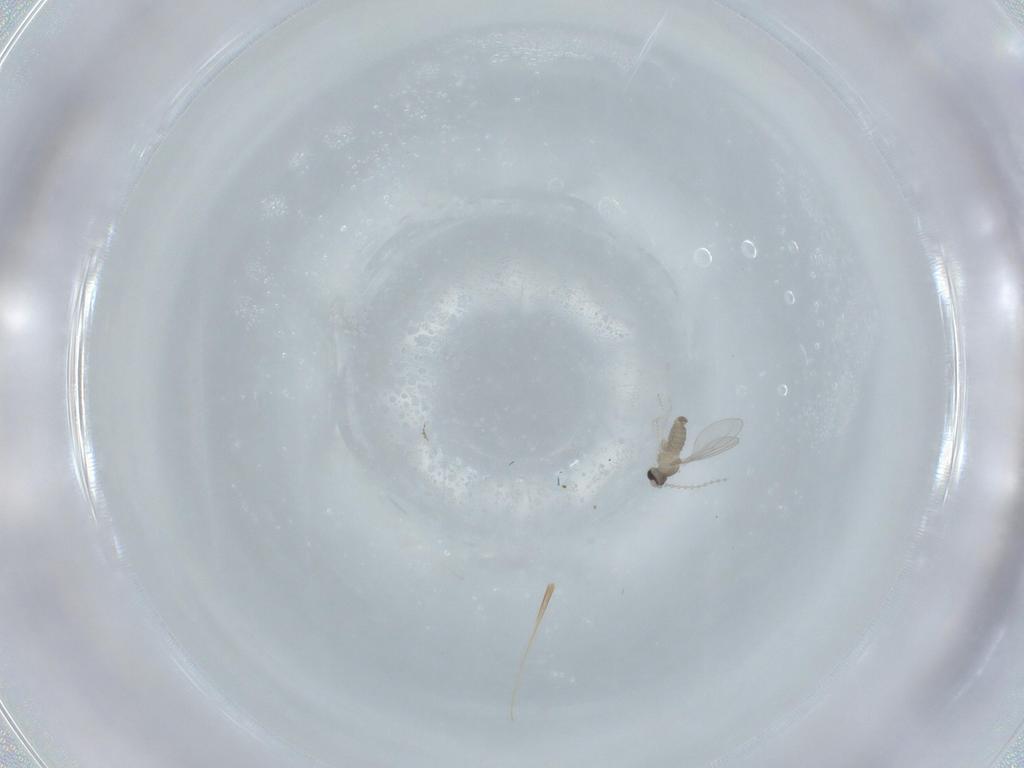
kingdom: Animalia
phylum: Arthropoda
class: Insecta
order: Diptera
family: Cecidomyiidae
